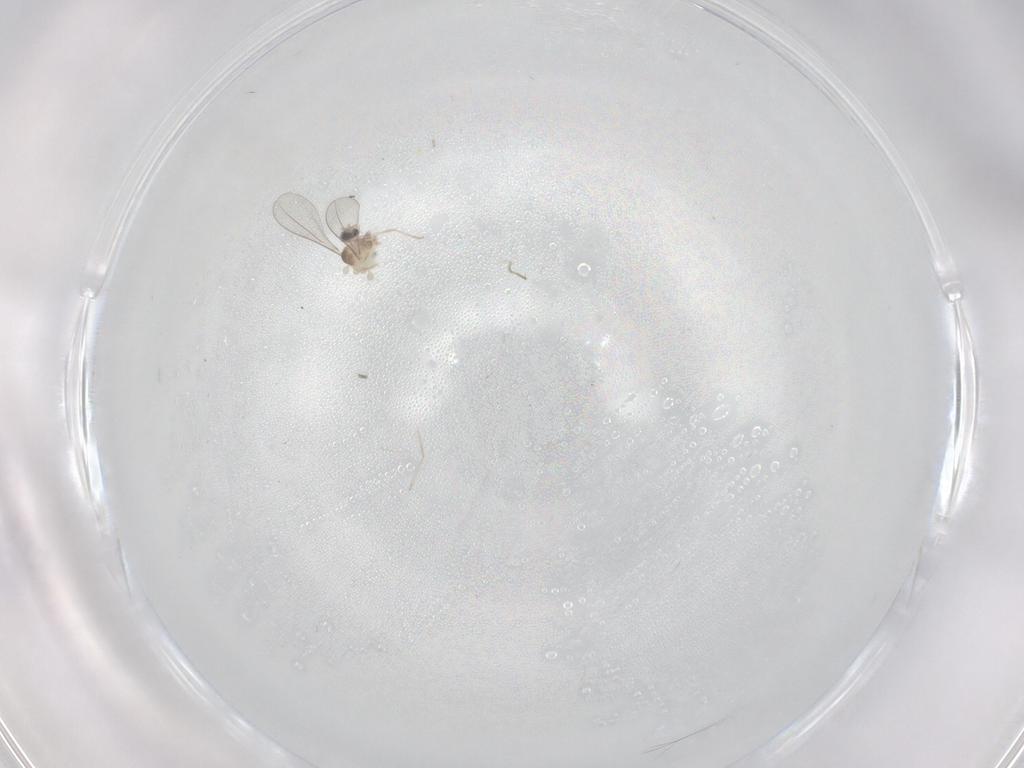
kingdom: Animalia
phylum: Arthropoda
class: Insecta
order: Diptera
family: Cecidomyiidae
